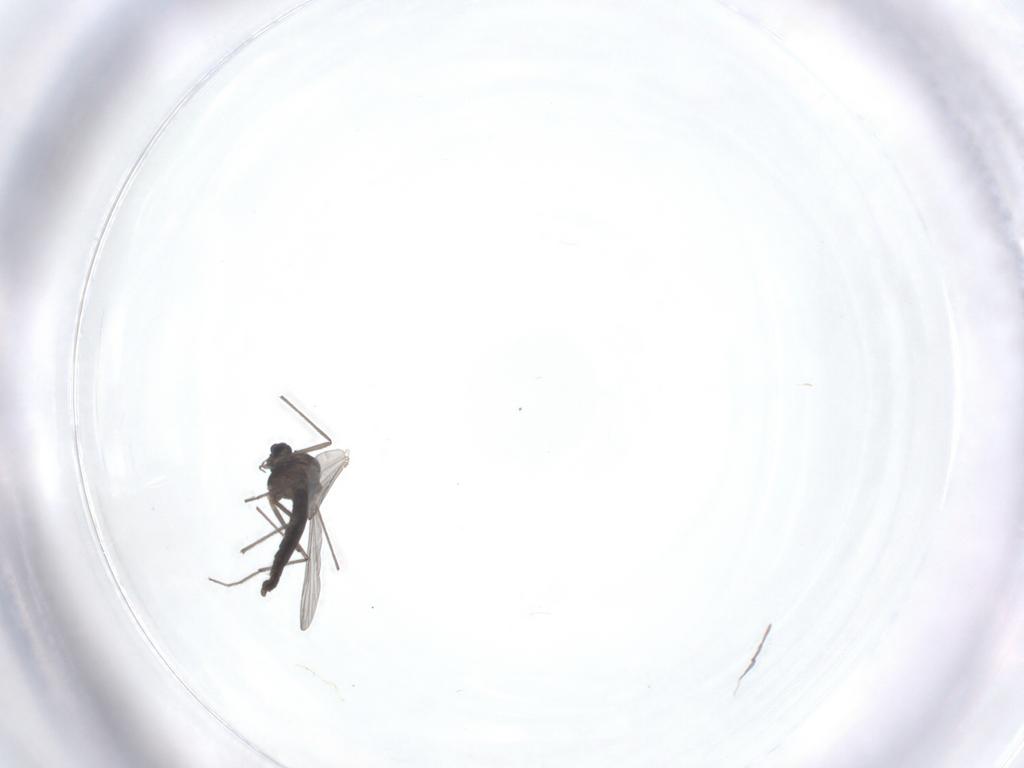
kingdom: Animalia
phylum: Arthropoda
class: Insecta
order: Diptera
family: Chironomidae
